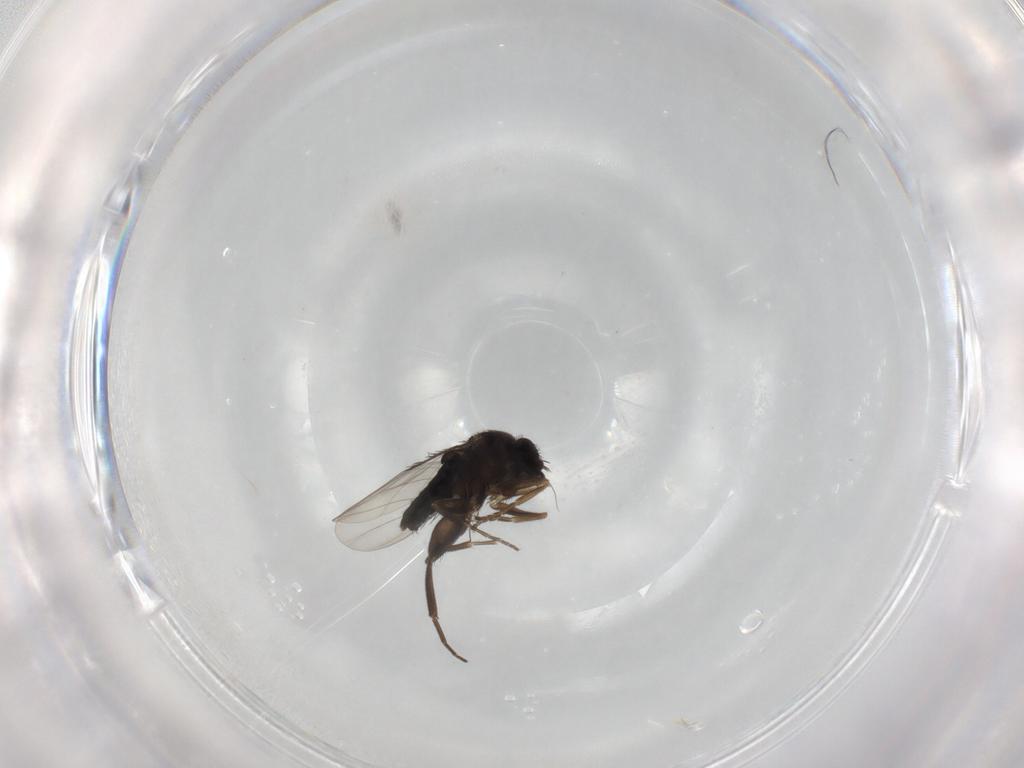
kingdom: Animalia
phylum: Arthropoda
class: Insecta
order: Diptera
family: Phoridae
